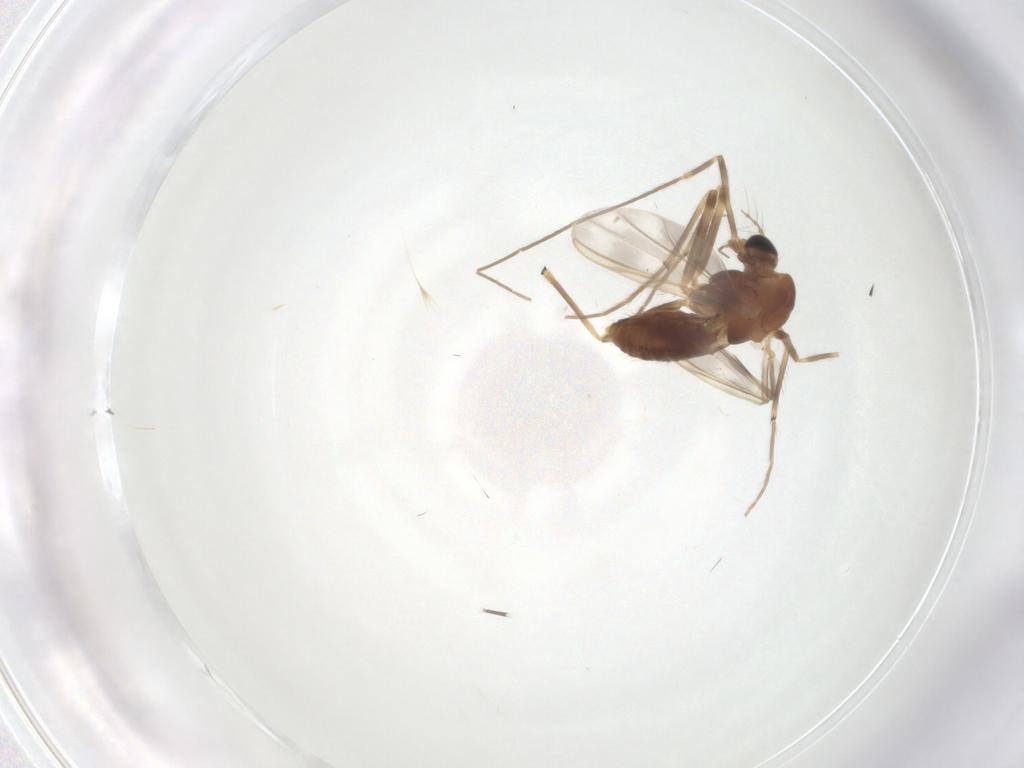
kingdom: Animalia
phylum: Arthropoda
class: Insecta
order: Diptera
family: Chironomidae
